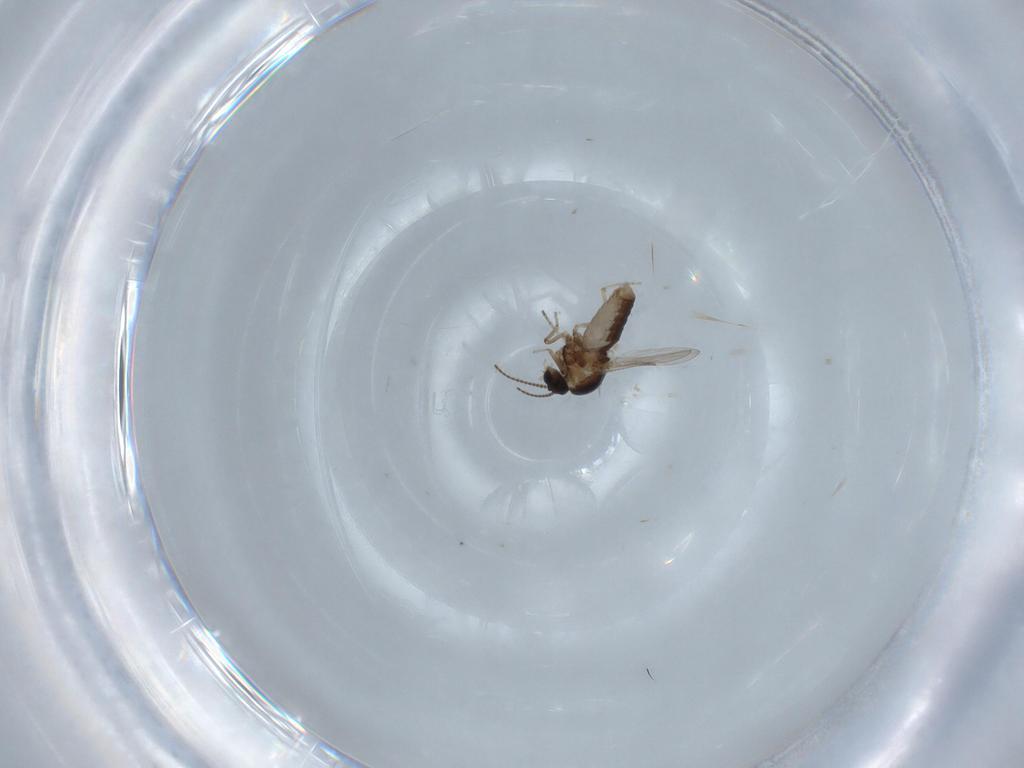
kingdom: Animalia
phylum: Arthropoda
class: Insecta
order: Diptera
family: Ceratopogonidae
